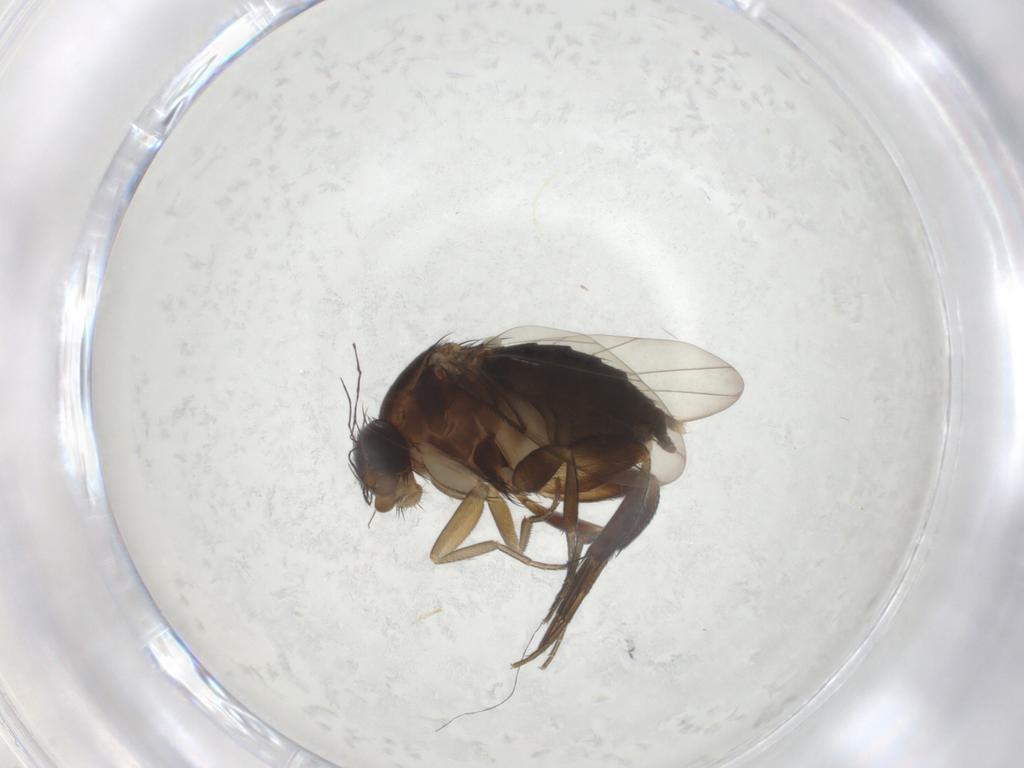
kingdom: Animalia
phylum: Arthropoda
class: Insecta
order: Diptera
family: Phoridae
